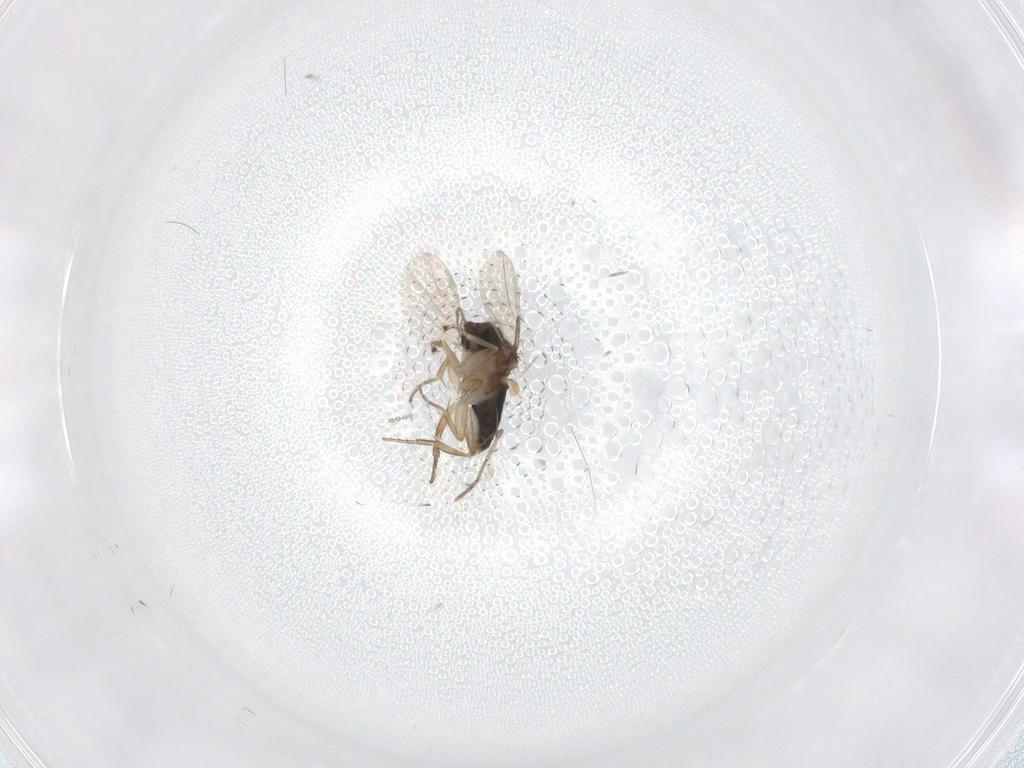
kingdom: Animalia
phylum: Arthropoda
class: Insecta
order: Diptera
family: Phoridae
